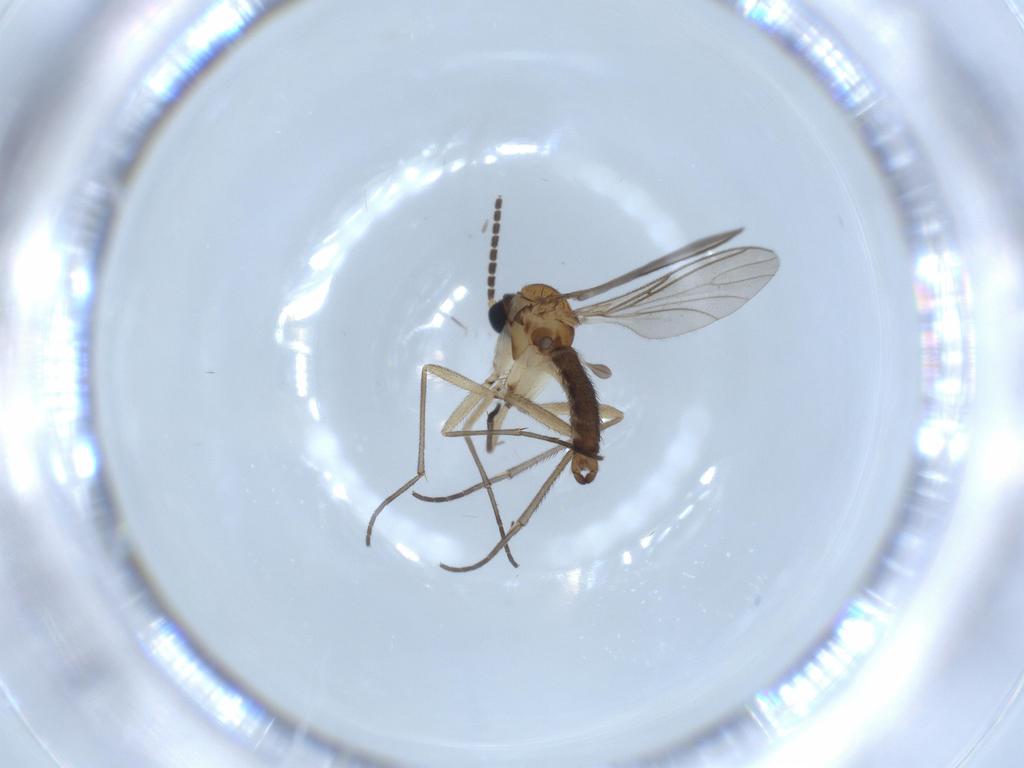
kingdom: Animalia
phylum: Arthropoda
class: Insecta
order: Diptera
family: Sciaridae
